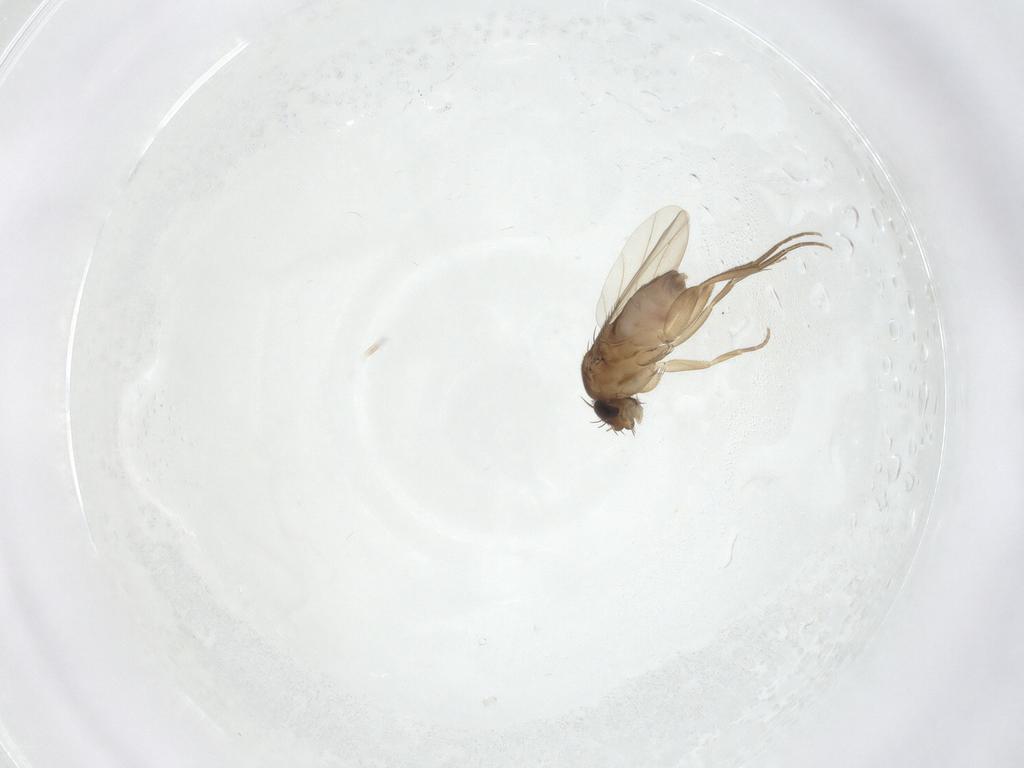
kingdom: Animalia
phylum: Arthropoda
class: Insecta
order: Diptera
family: Phoridae
